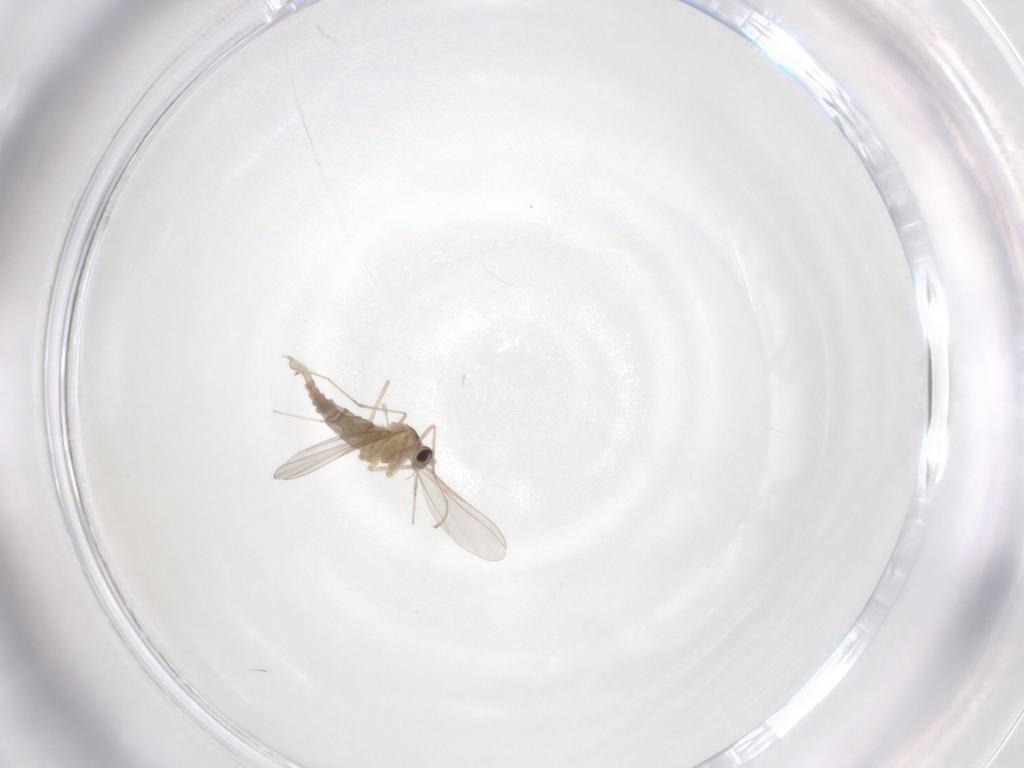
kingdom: Animalia
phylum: Arthropoda
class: Insecta
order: Diptera
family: Cecidomyiidae
